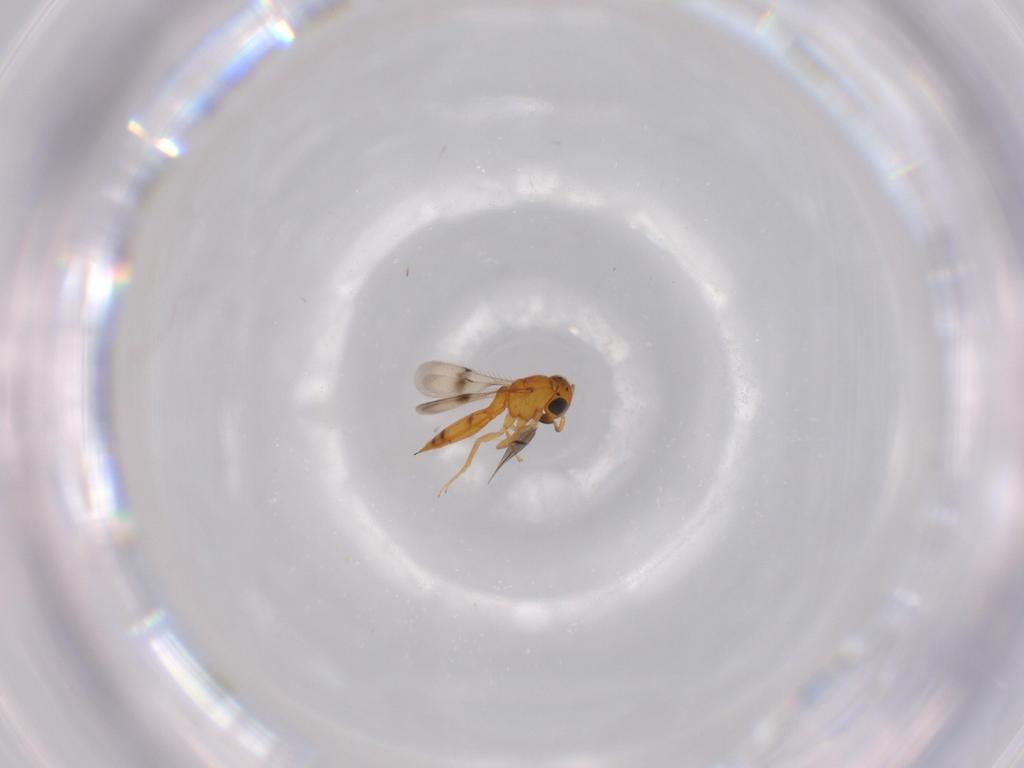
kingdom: Animalia
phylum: Arthropoda
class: Insecta
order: Hymenoptera
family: Scelionidae
